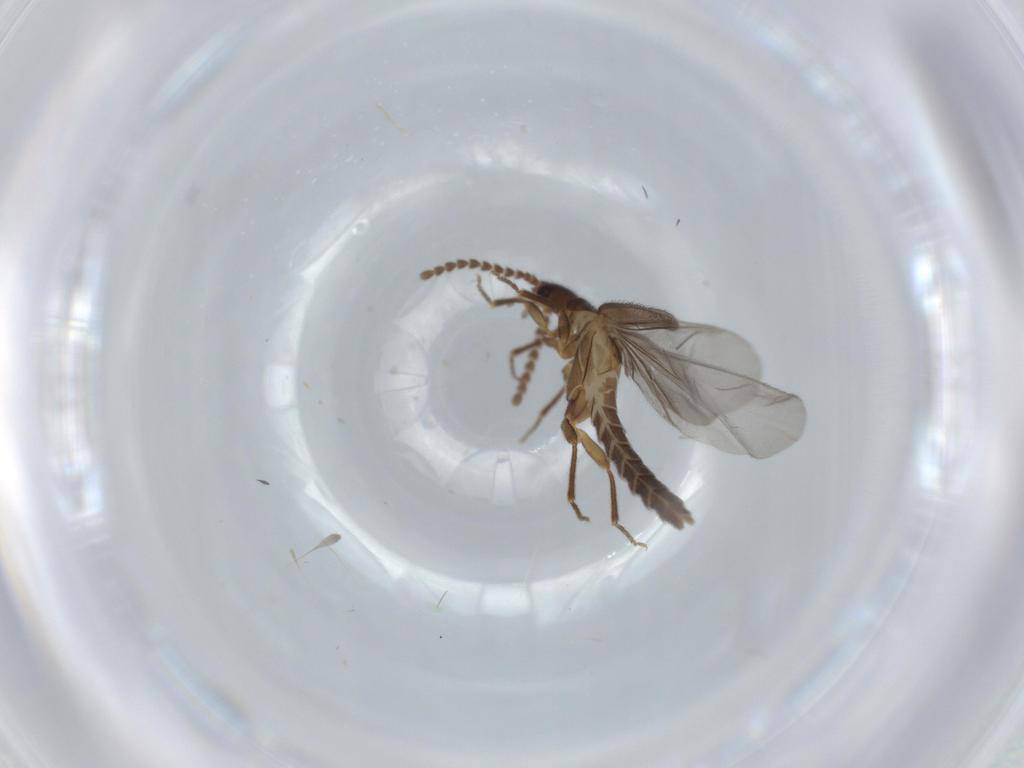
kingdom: Animalia
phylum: Arthropoda
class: Insecta
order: Coleoptera
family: Omethidae
